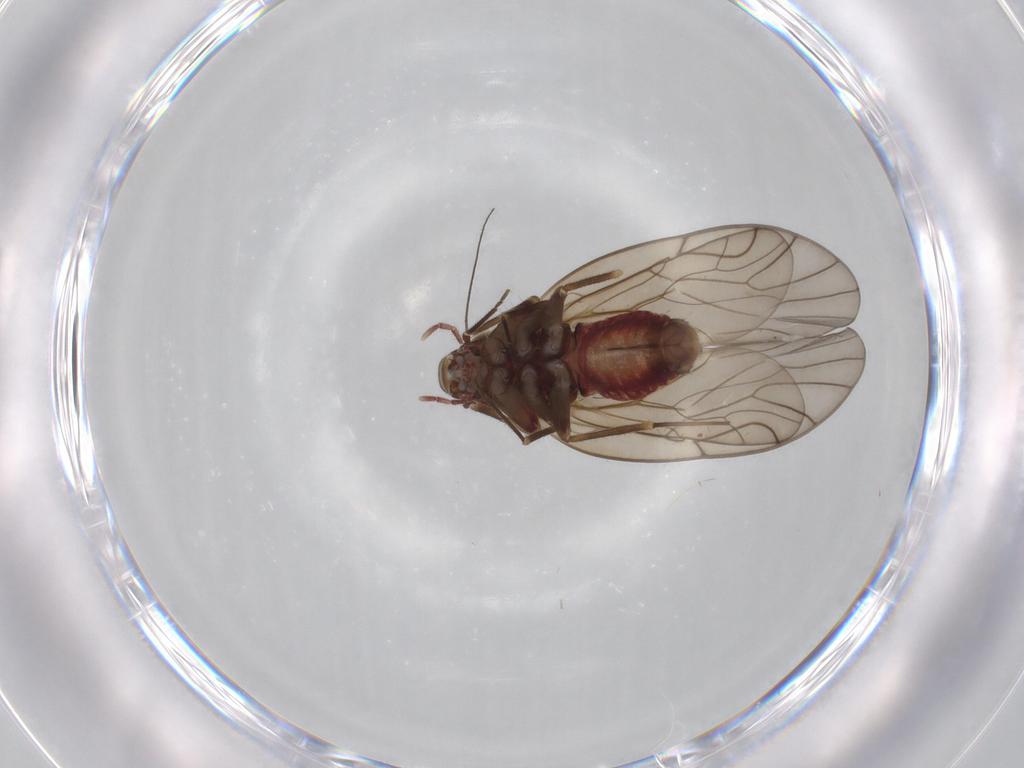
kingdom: Animalia
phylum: Arthropoda
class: Insecta
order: Psocodea
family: Philotarsidae
